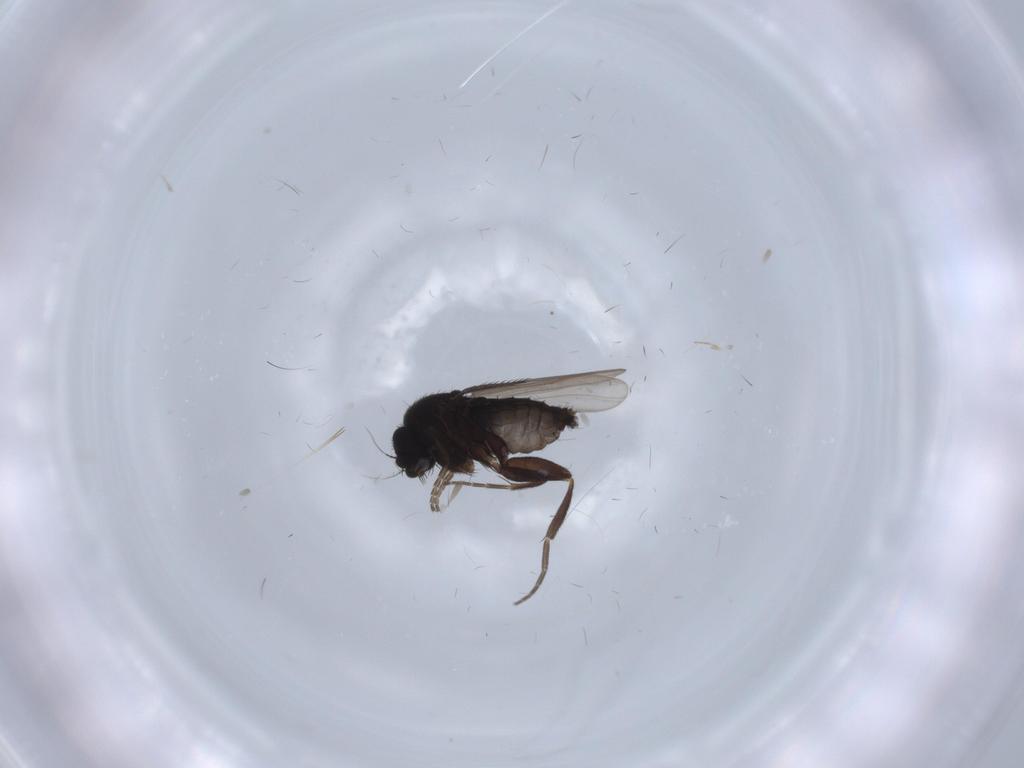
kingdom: Animalia
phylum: Arthropoda
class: Insecta
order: Diptera
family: Phoridae
